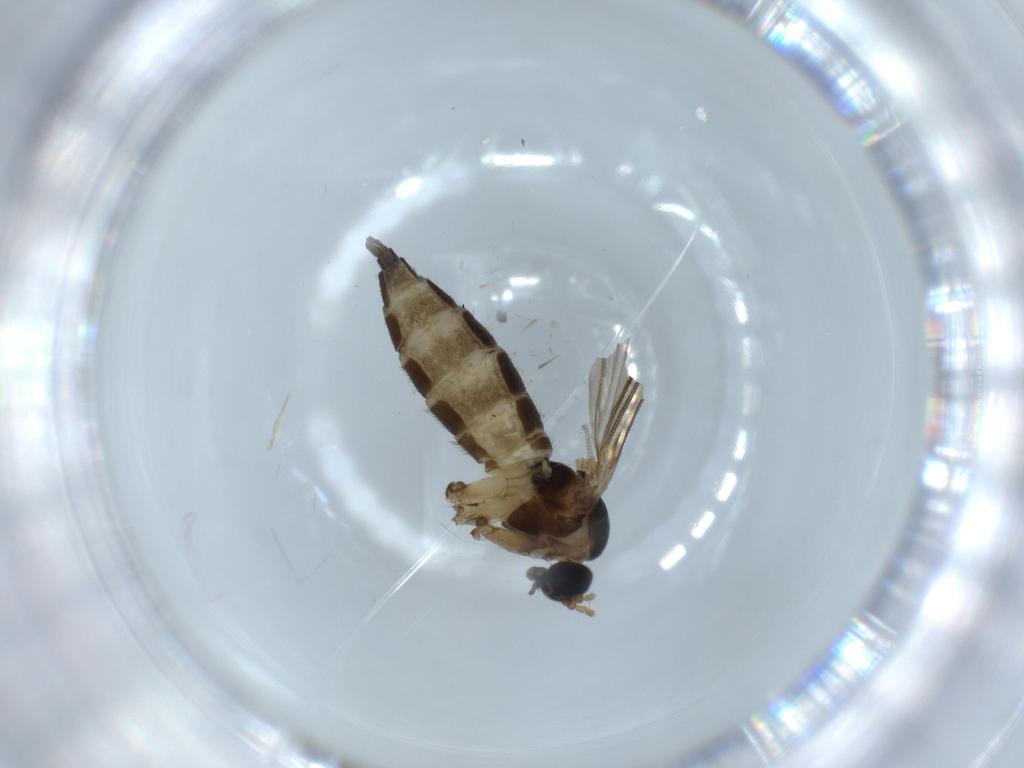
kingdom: Animalia
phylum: Arthropoda
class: Insecta
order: Diptera
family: Sciaridae
